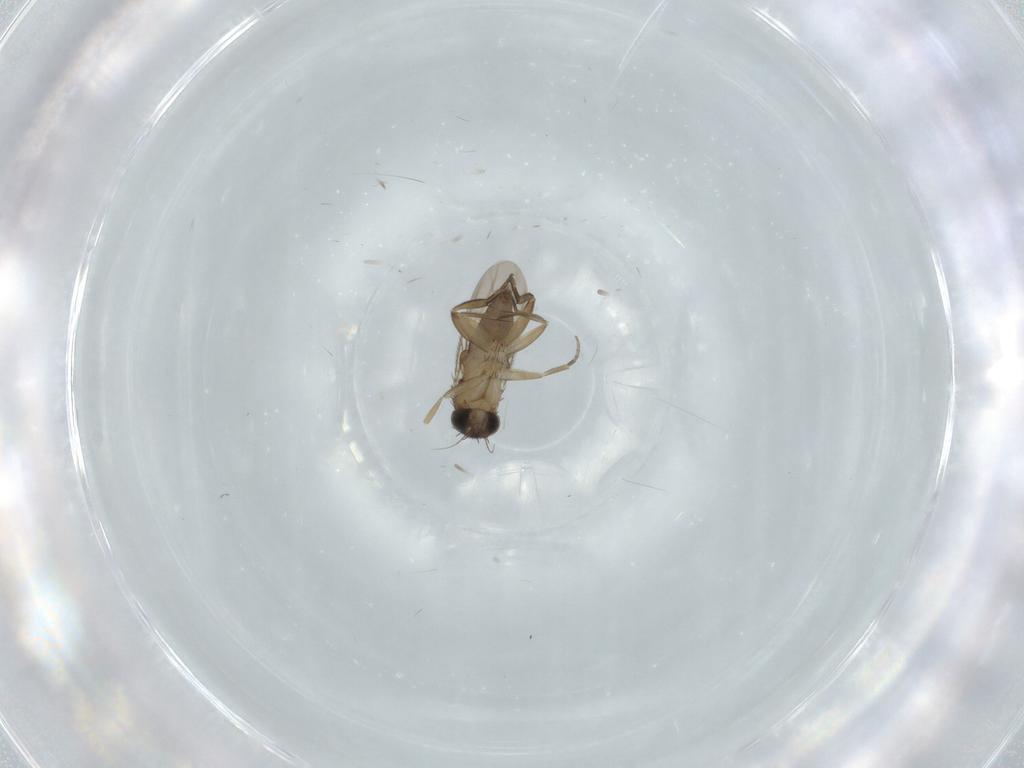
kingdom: Animalia
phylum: Arthropoda
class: Insecta
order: Diptera
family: Phoridae
